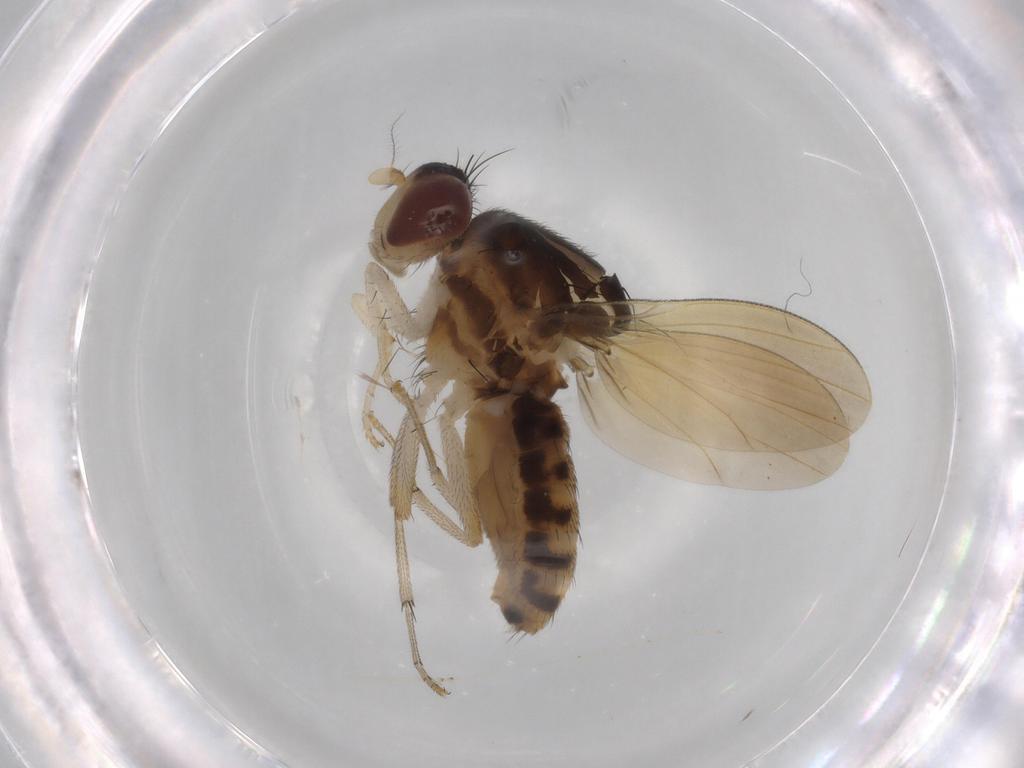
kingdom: Animalia
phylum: Arthropoda
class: Insecta
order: Diptera
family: Cecidomyiidae
